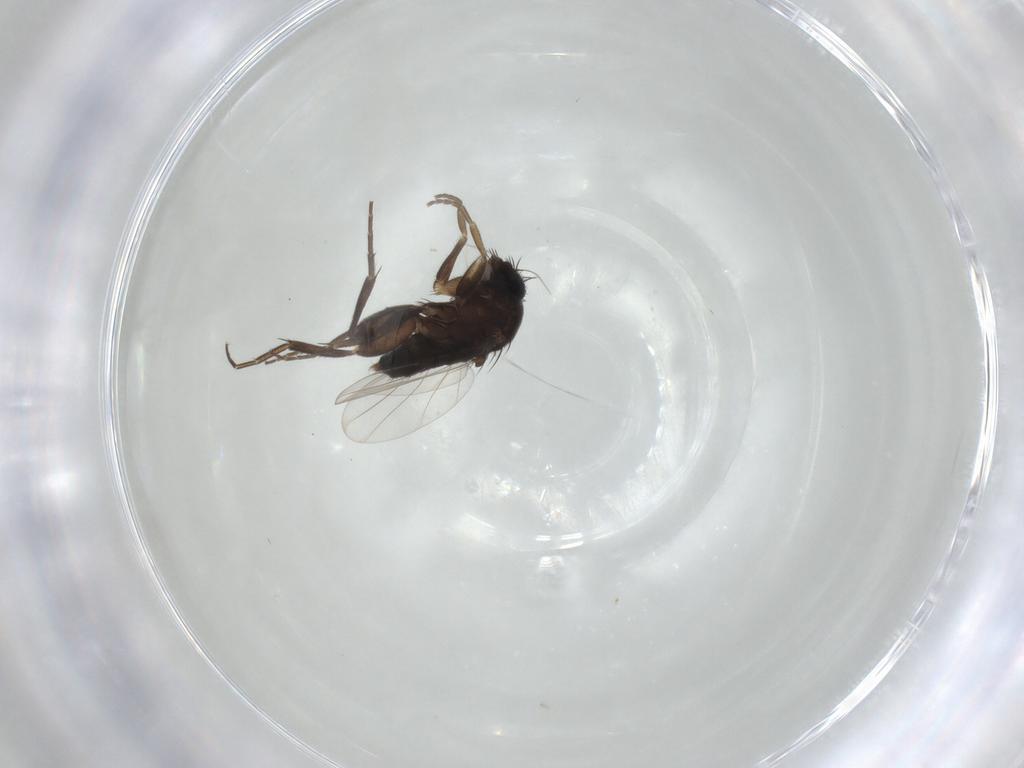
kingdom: Animalia
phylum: Arthropoda
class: Insecta
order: Diptera
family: Phoridae
